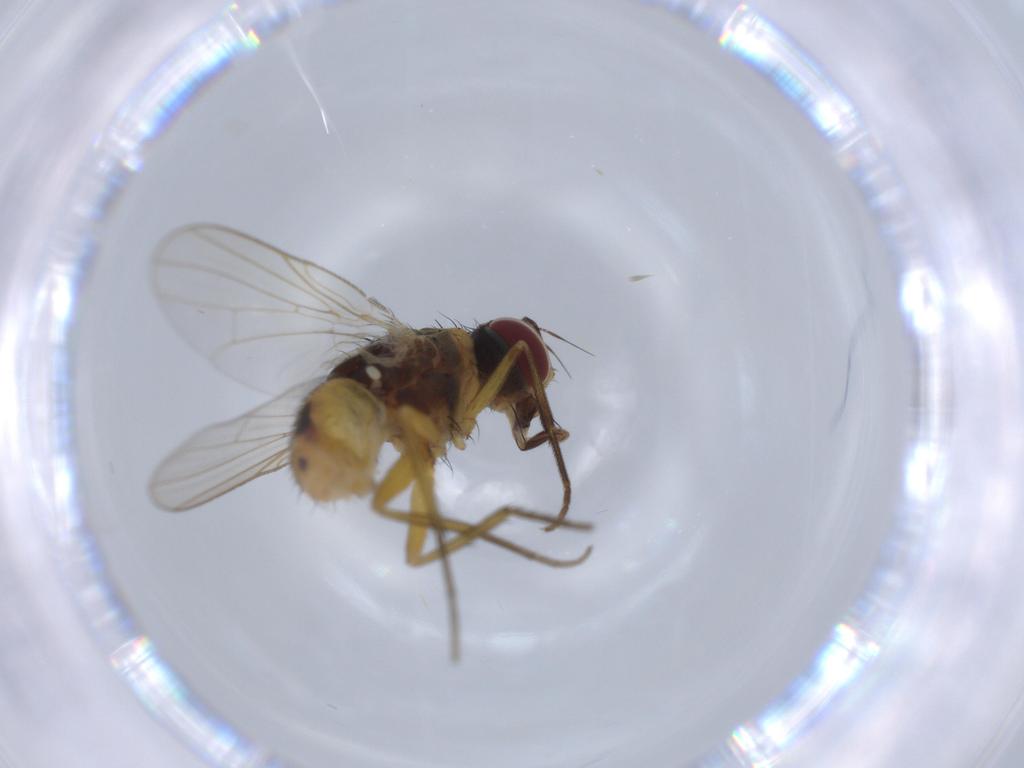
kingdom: Animalia
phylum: Arthropoda
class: Insecta
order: Diptera
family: Muscidae
